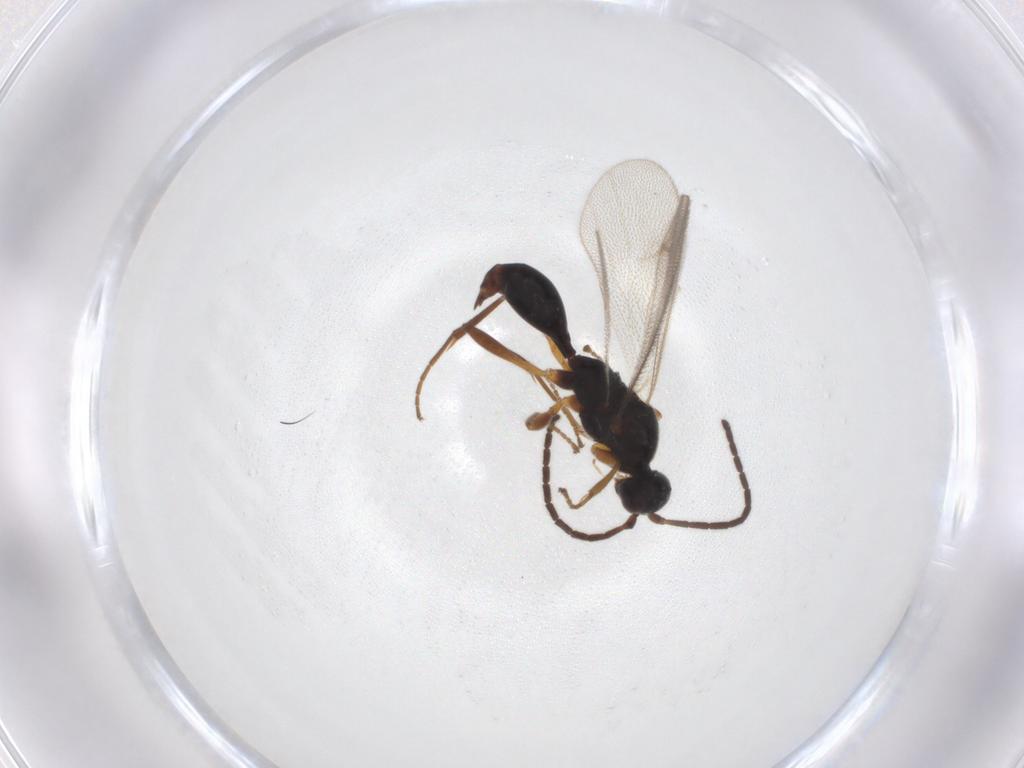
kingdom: Animalia
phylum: Arthropoda
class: Insecta
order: Hymenoptera
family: Proctotrupidae
